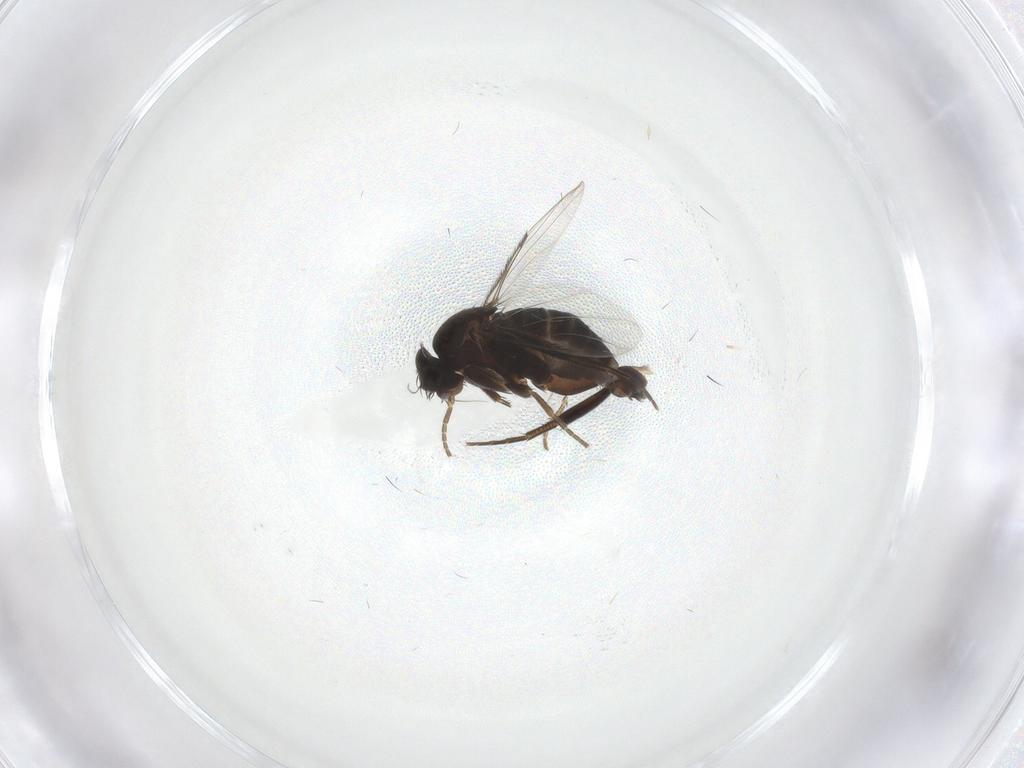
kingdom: Animalia
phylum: Arthropoda
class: Insecta
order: Diptera
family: Phoridae
